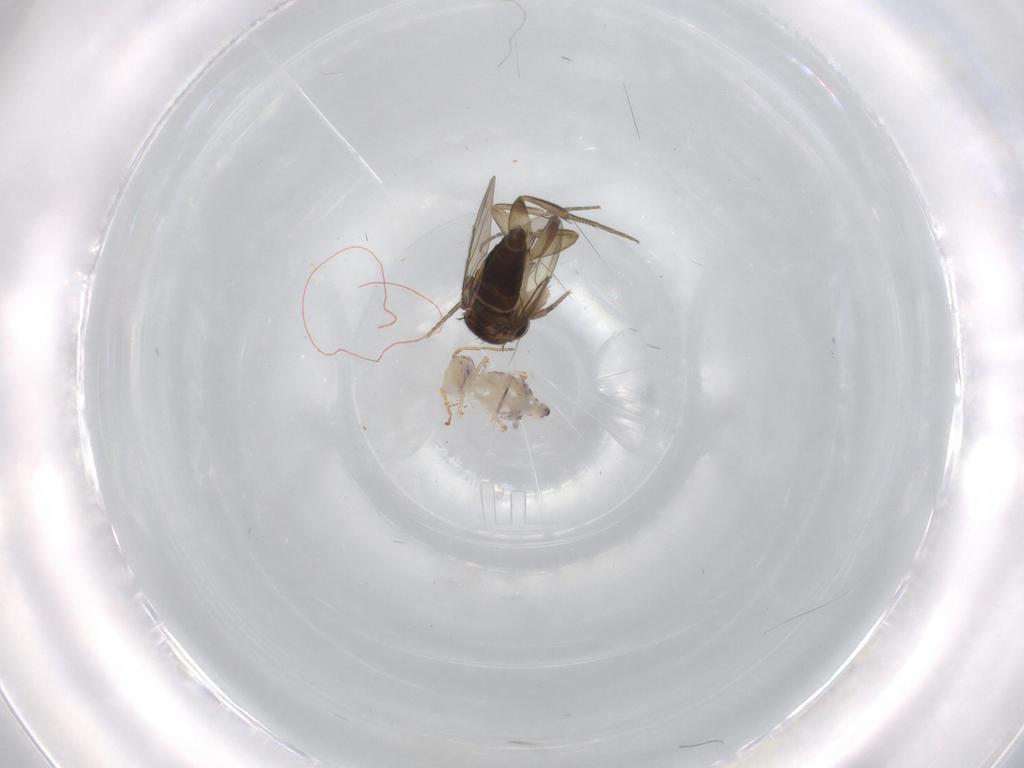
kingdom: Animalia
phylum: Arthropoda
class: Insecta
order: Diptera
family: Phoridae
